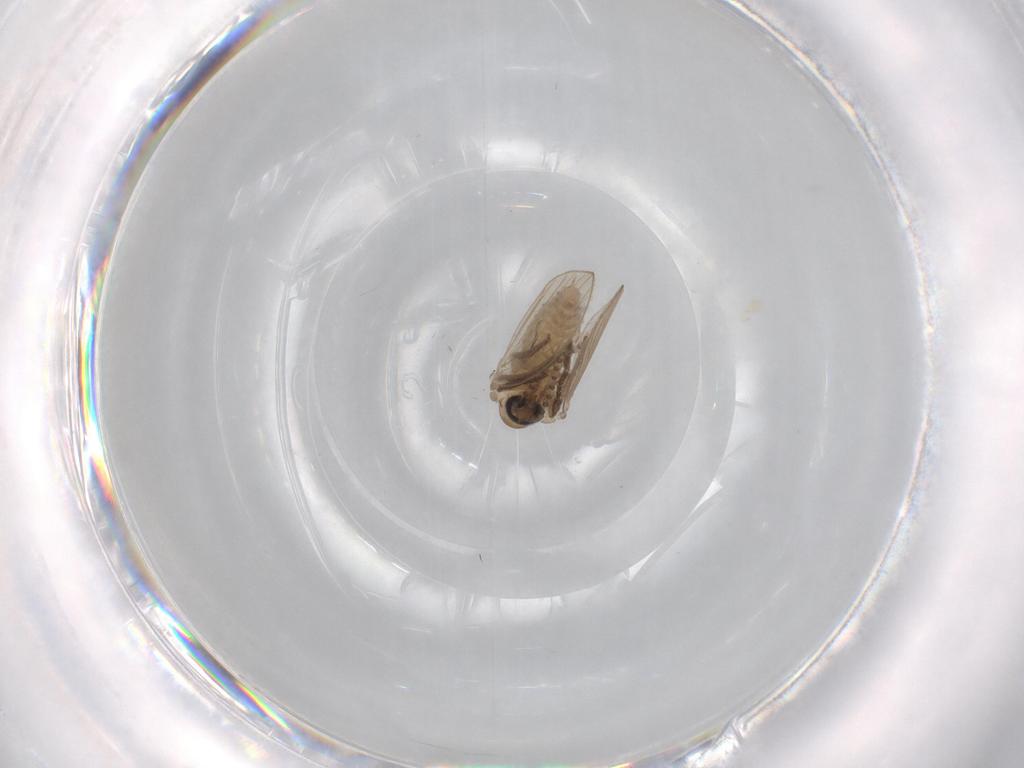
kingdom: Animalia
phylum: Arthropoda
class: Insecta
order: Diptera
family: Psychodidae
